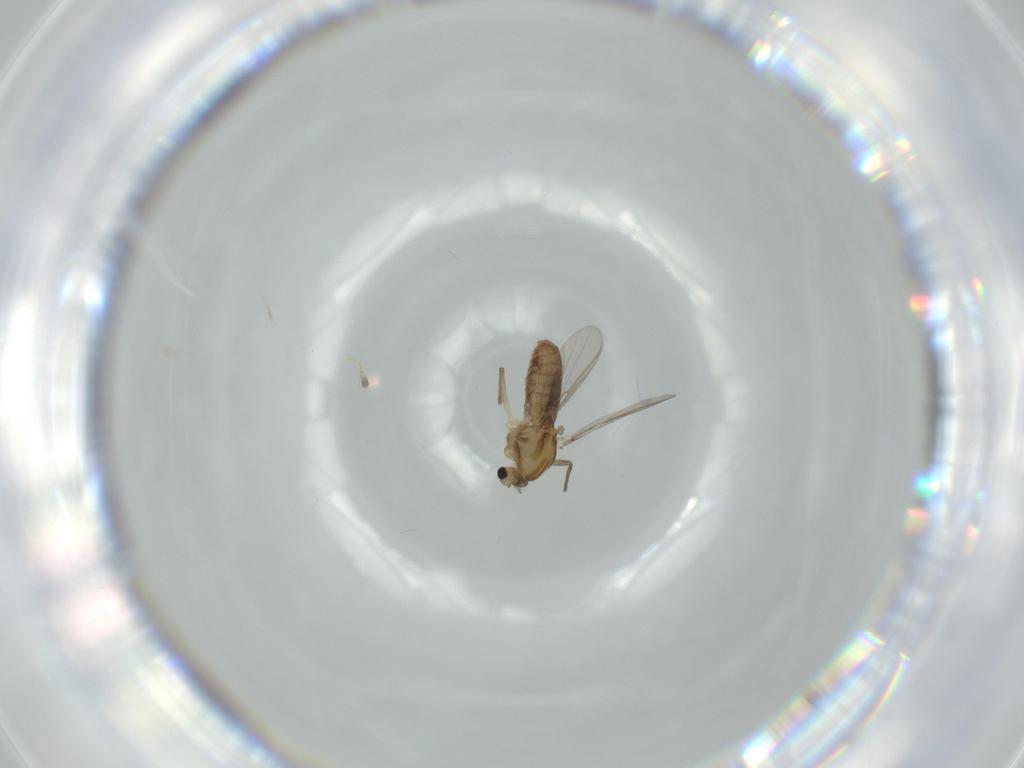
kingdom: Animalia
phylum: Arthropoda
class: Insecta
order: Diptera
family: Chironomidae
